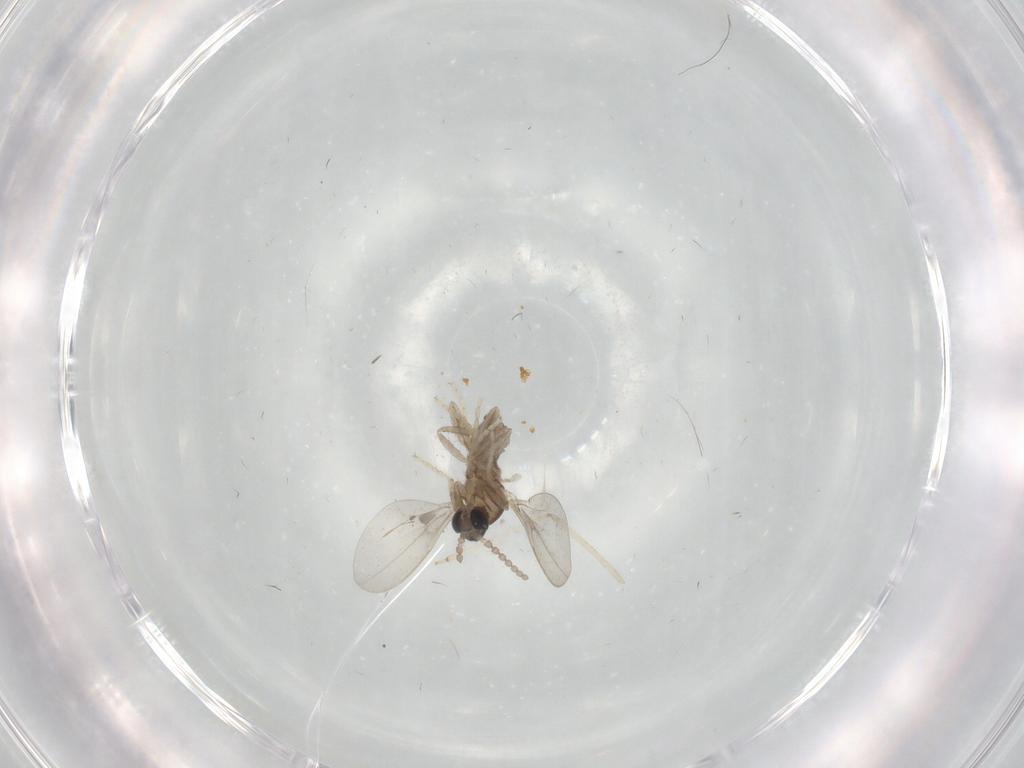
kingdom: Animalia
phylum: Arthropoda
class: Insecta
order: Diptera
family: Cecidomyiidae
